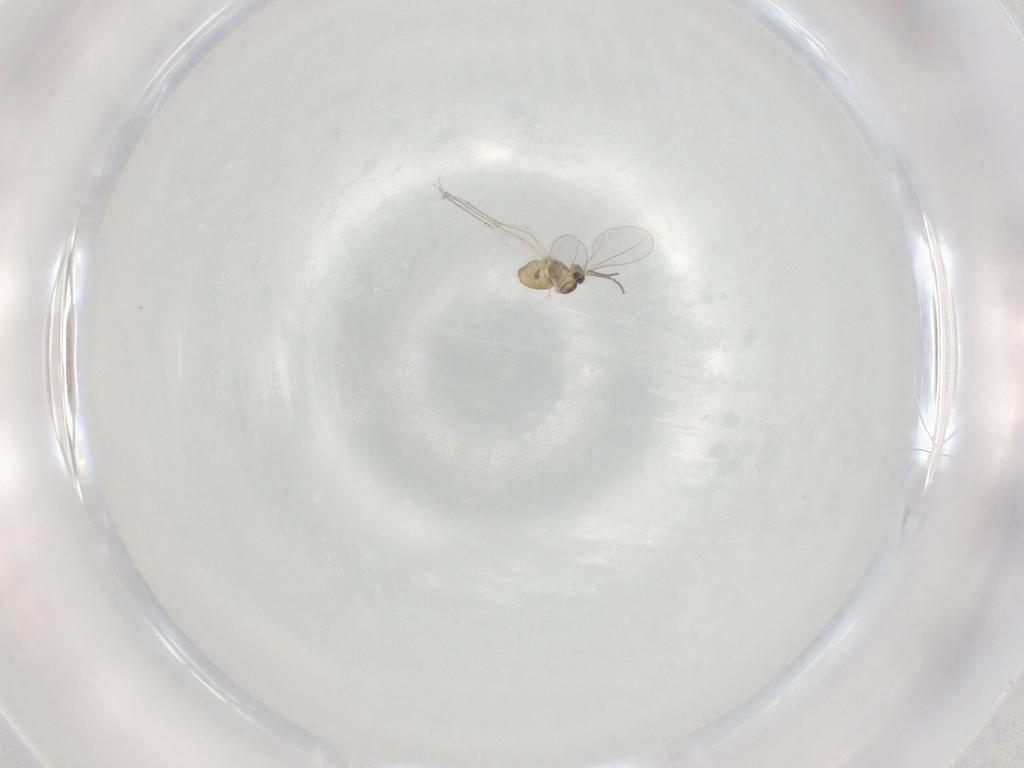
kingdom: Animalia
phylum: Arthropoda
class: Insecta
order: Diptera
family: Cecidomyiidae
